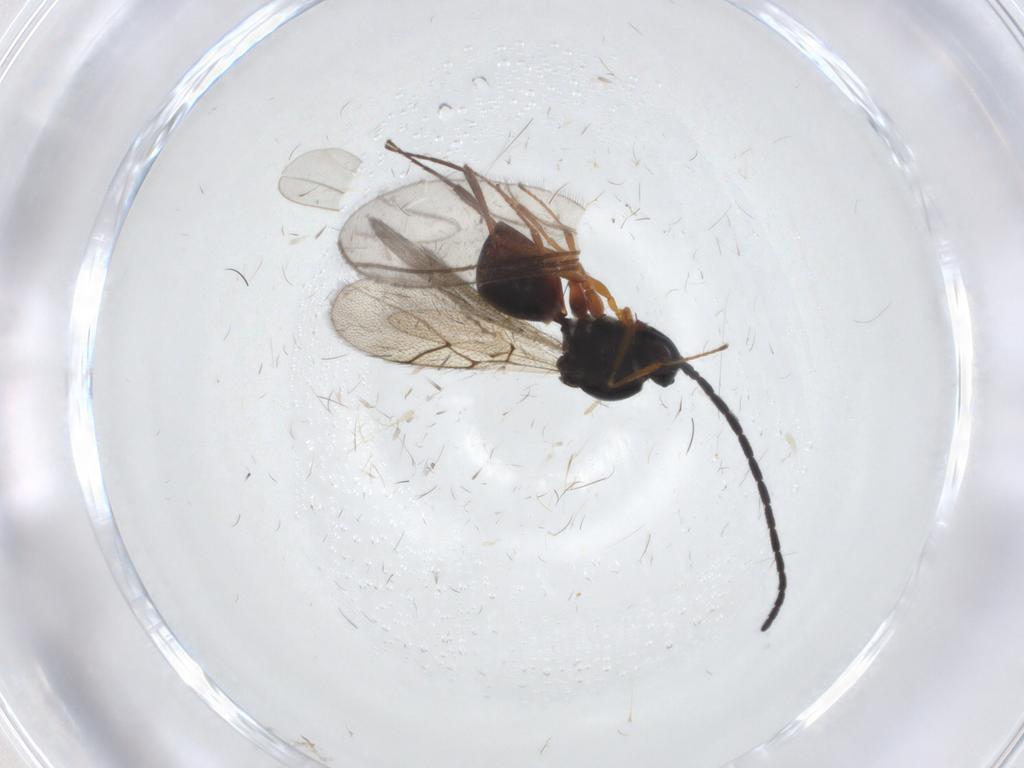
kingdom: Animalia
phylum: Arthropoda
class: Insecta
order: Hymenoptera
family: Figitidae
